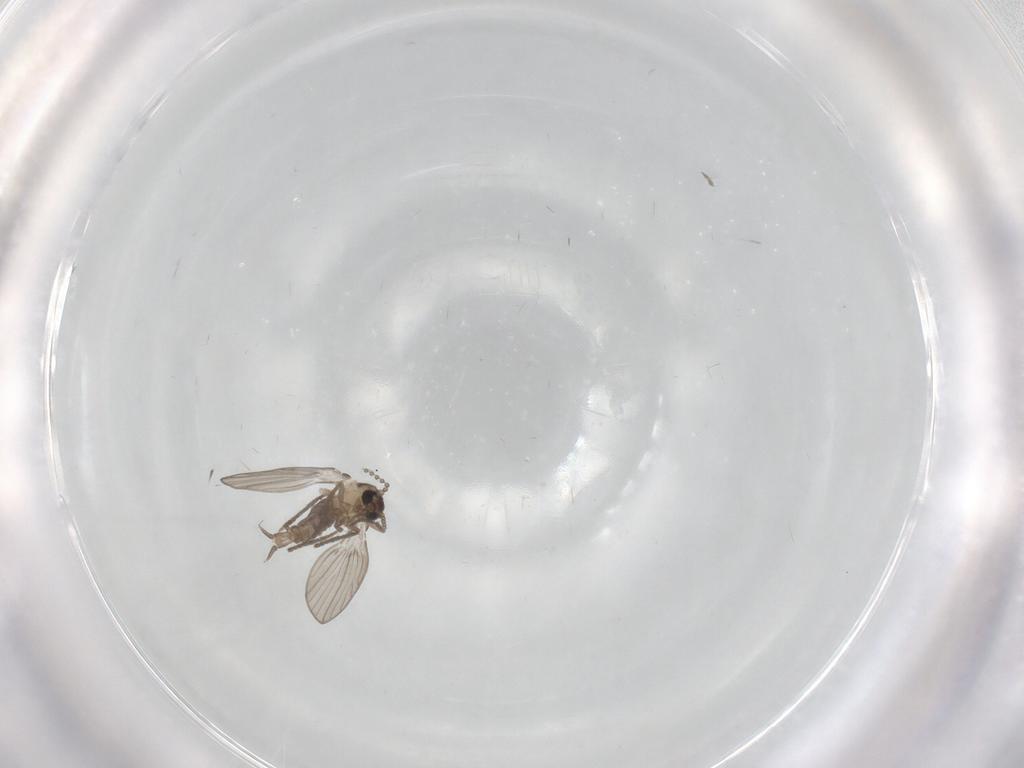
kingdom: Animalia
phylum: Arthropoda
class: Insecta
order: Diptera
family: Psychodidae
